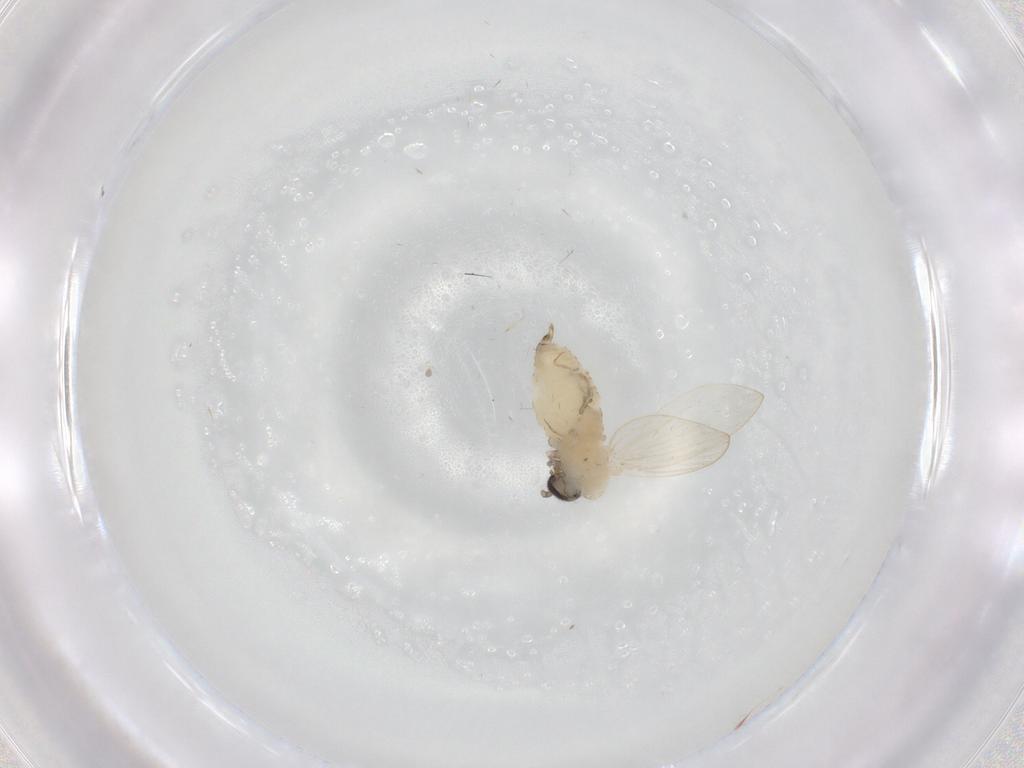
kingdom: Animalia
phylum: Arthropoda
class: Insecta
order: Diptera
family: Psychodidae
